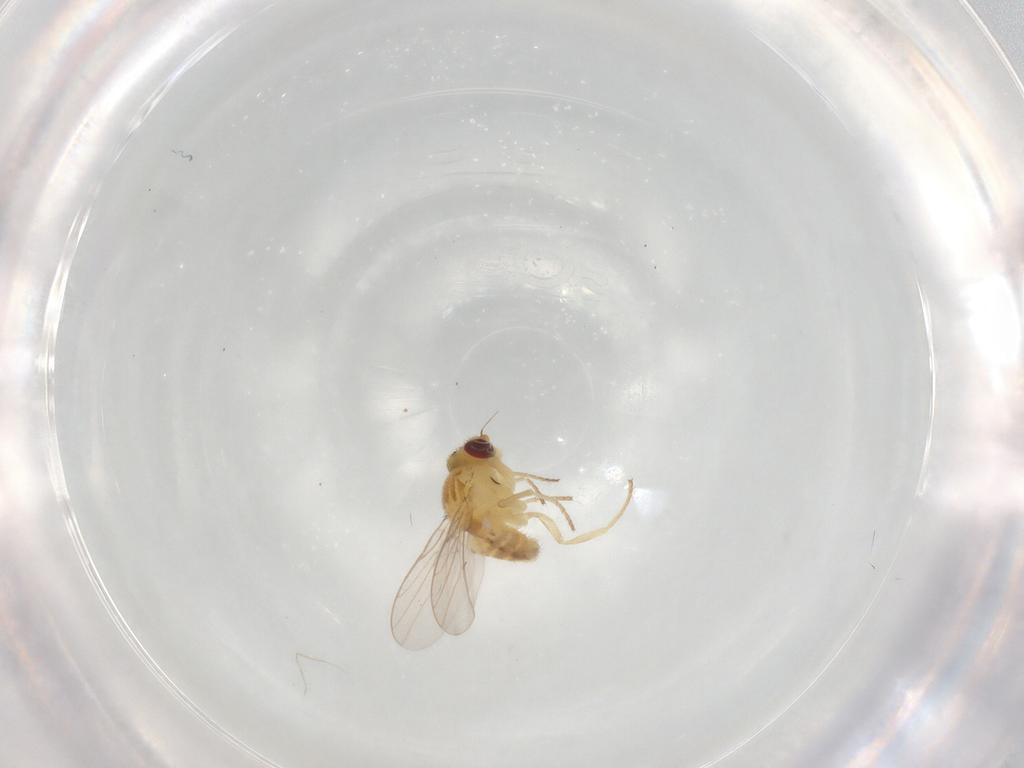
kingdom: Animalia
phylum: Arthropoda
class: Insecta
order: Diptera
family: Chloropidae
